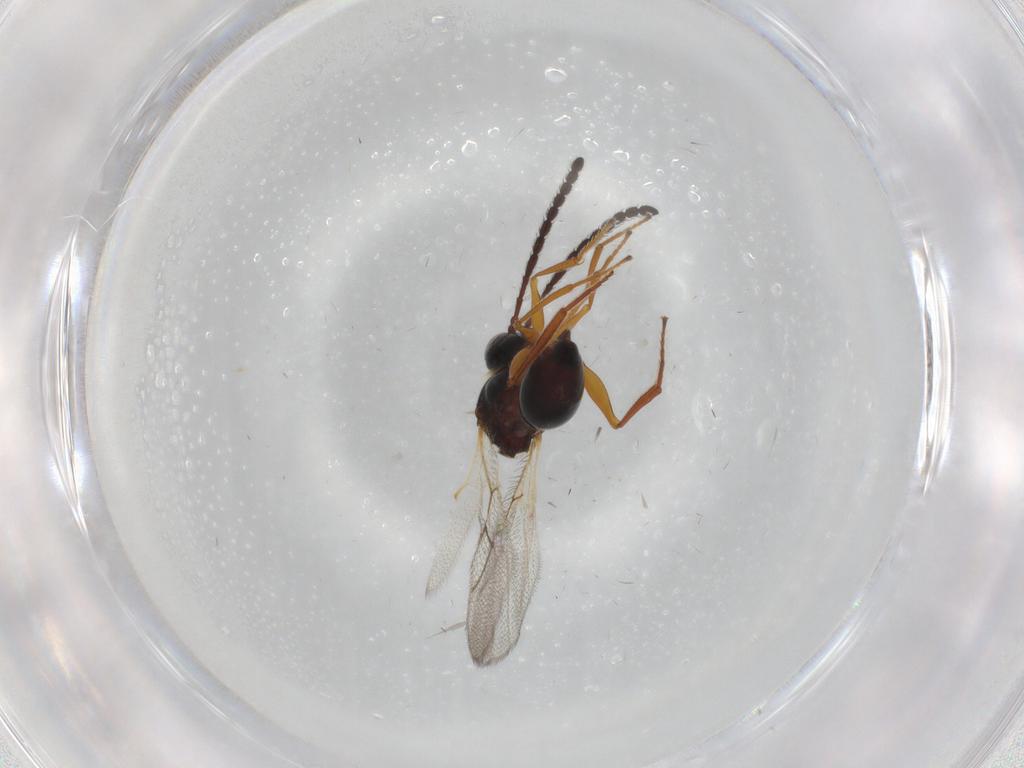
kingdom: Animalia
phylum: Arthropoda
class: Insecta
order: Hymenoptera
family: Figitidae
